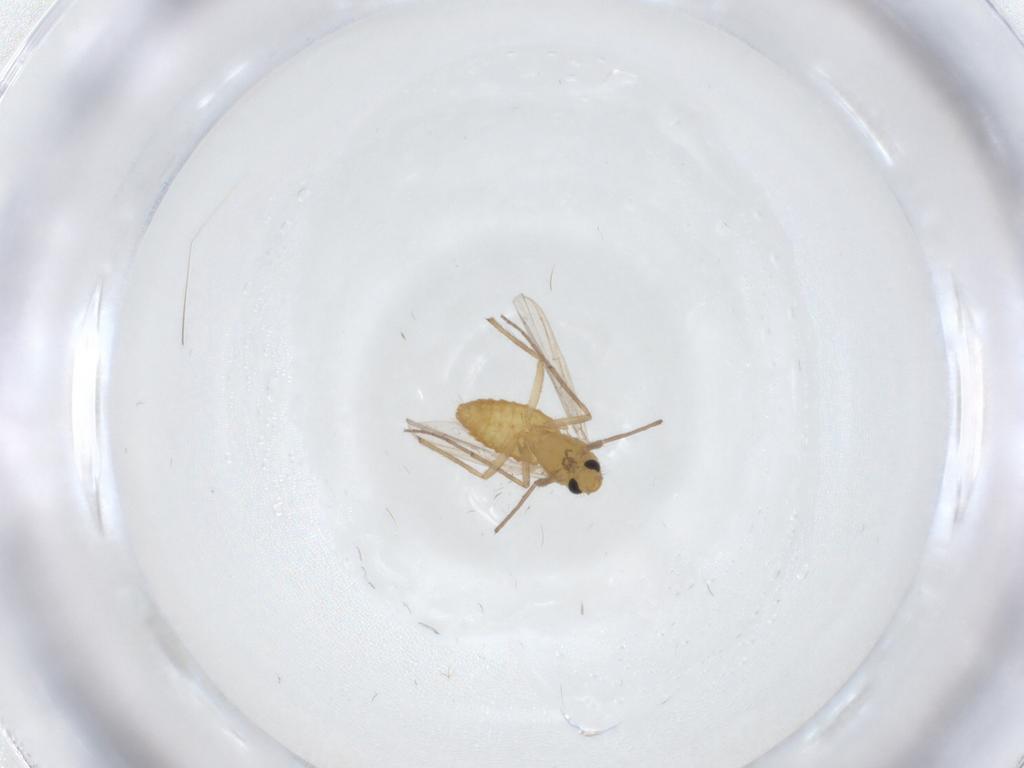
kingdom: Animalia
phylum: Arthropoda
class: Insecta
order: Diptera
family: Chironomidae
